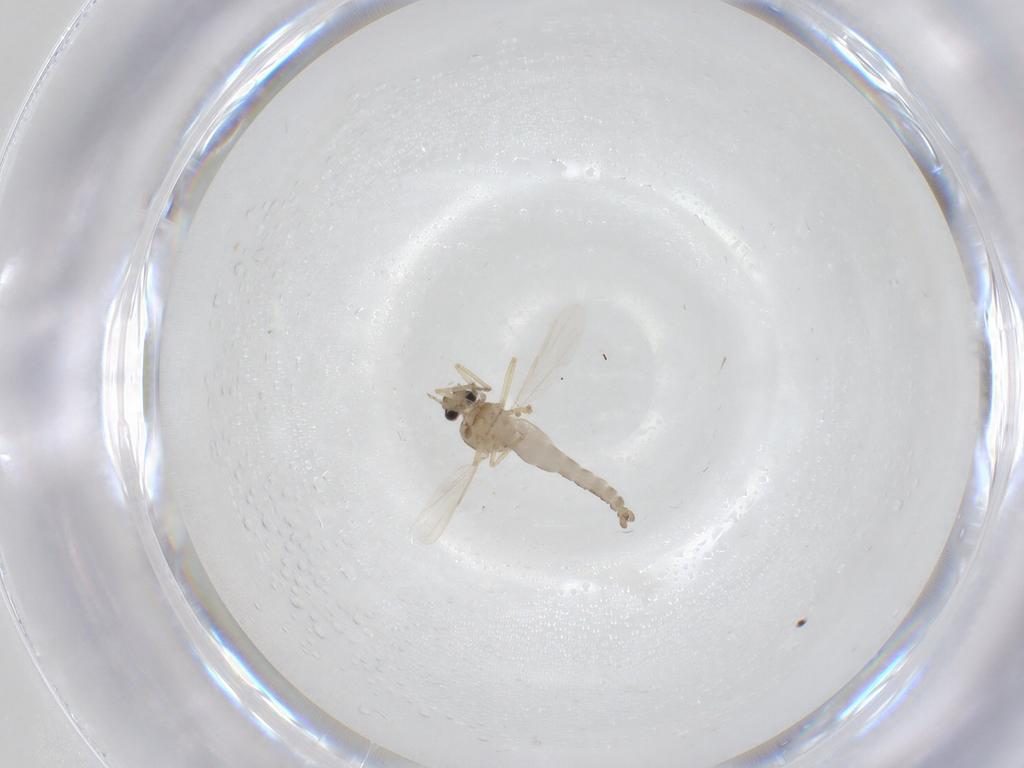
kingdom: Animalia
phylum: Arthropoda
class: Insecta
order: Diptera
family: Ceratopogonidae
